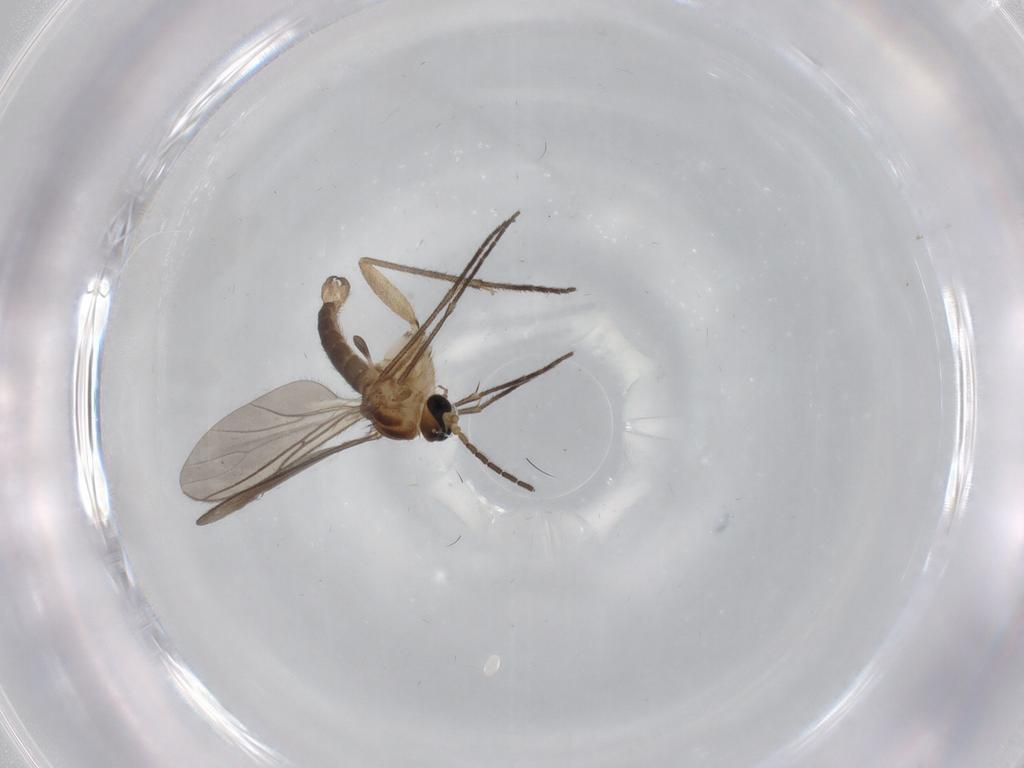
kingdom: Animalia
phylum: Arthropoda
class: Insecta
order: Diptera
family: Sciaridae
